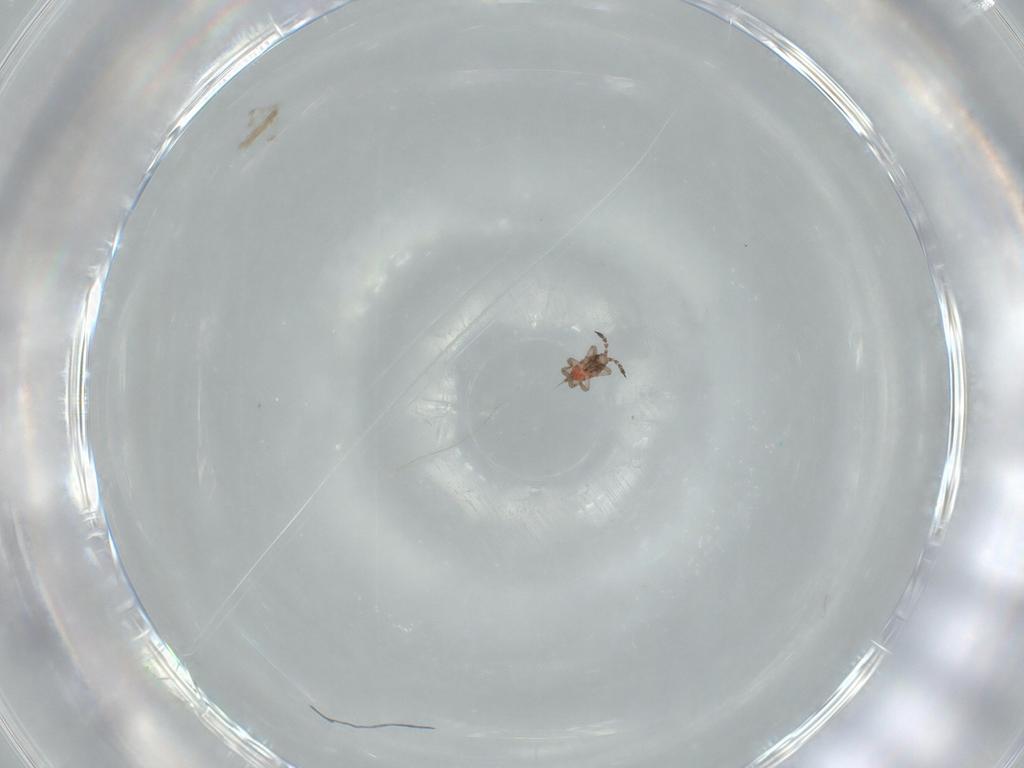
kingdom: Animalia
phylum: Arthropoda
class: Insecta
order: Thysanoptera
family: Phlaeothripidae
